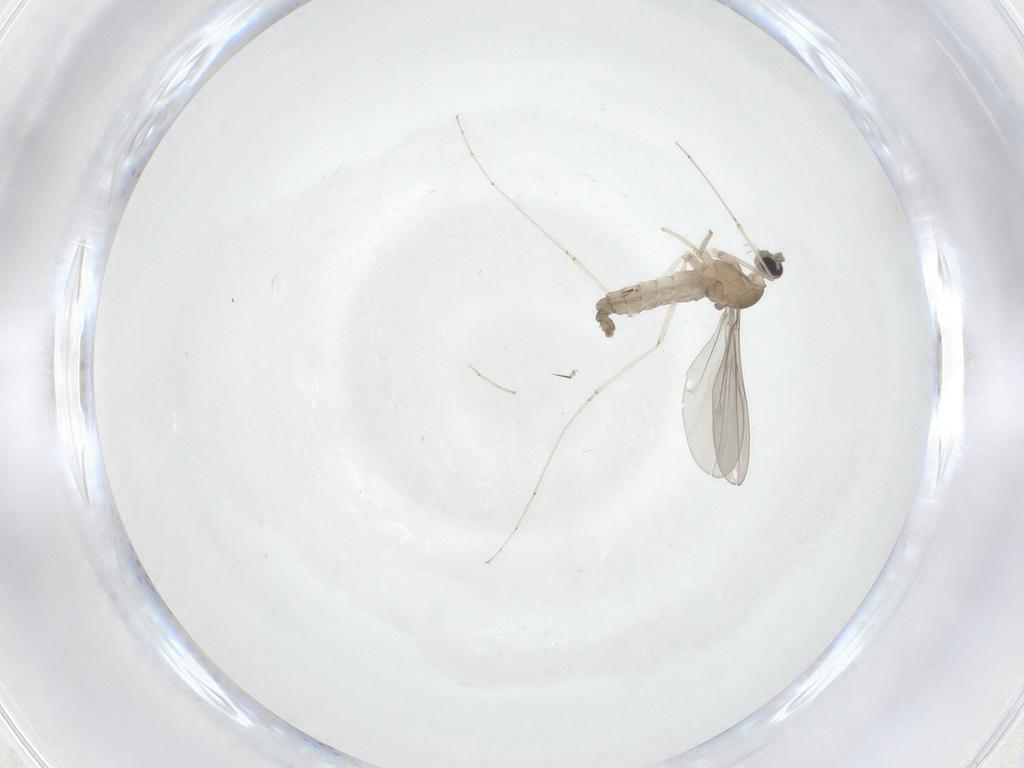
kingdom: Animalia
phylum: Arthropoda
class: Insecta
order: Diptera
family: Cecidomyiidae
